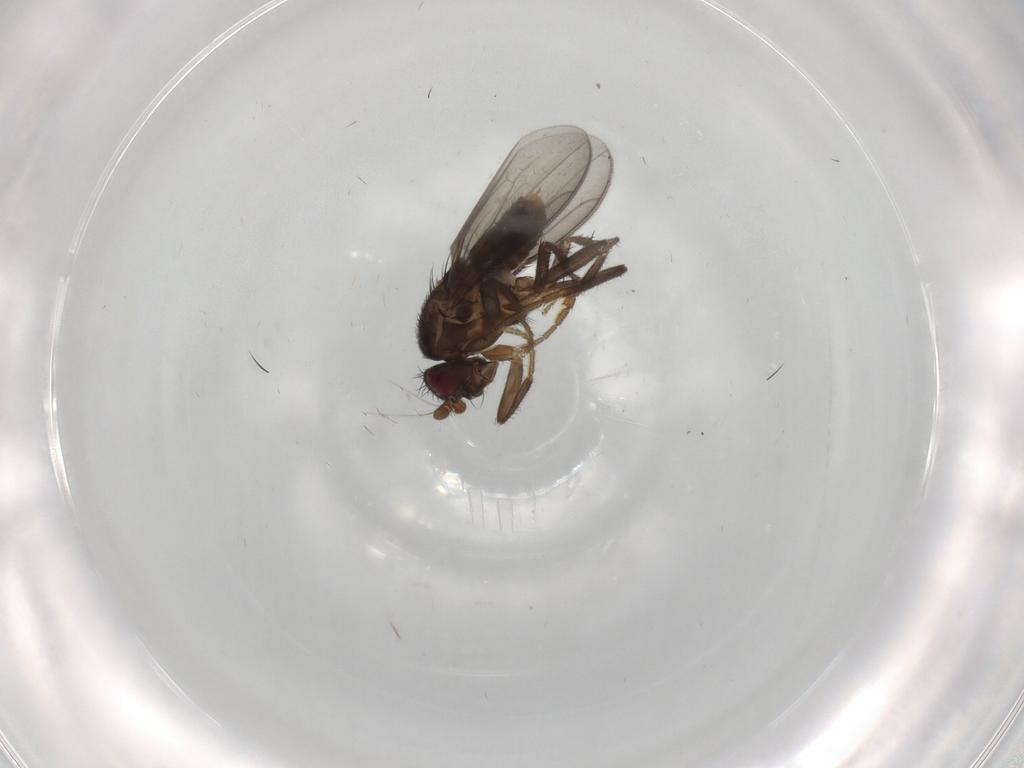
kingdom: Animalia
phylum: Arthropoda
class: Insecta
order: Diptera
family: Sphaeroceridae
